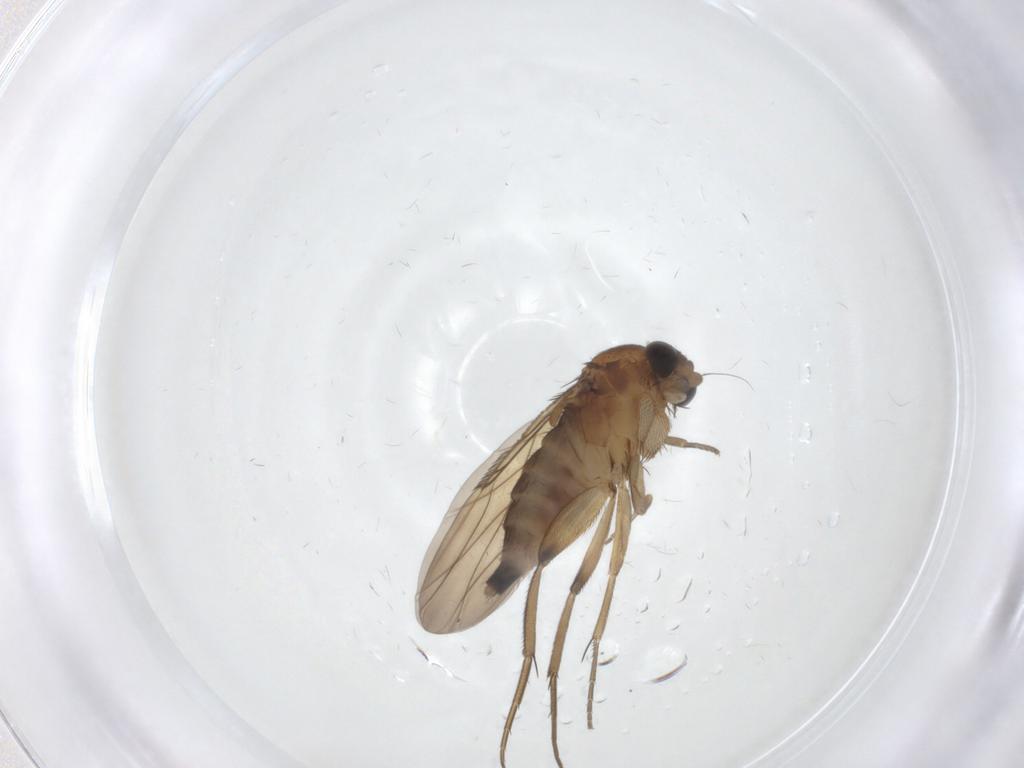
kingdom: Animalia
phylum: Arthropoda
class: Insecta
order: Diptera
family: Phoridae
